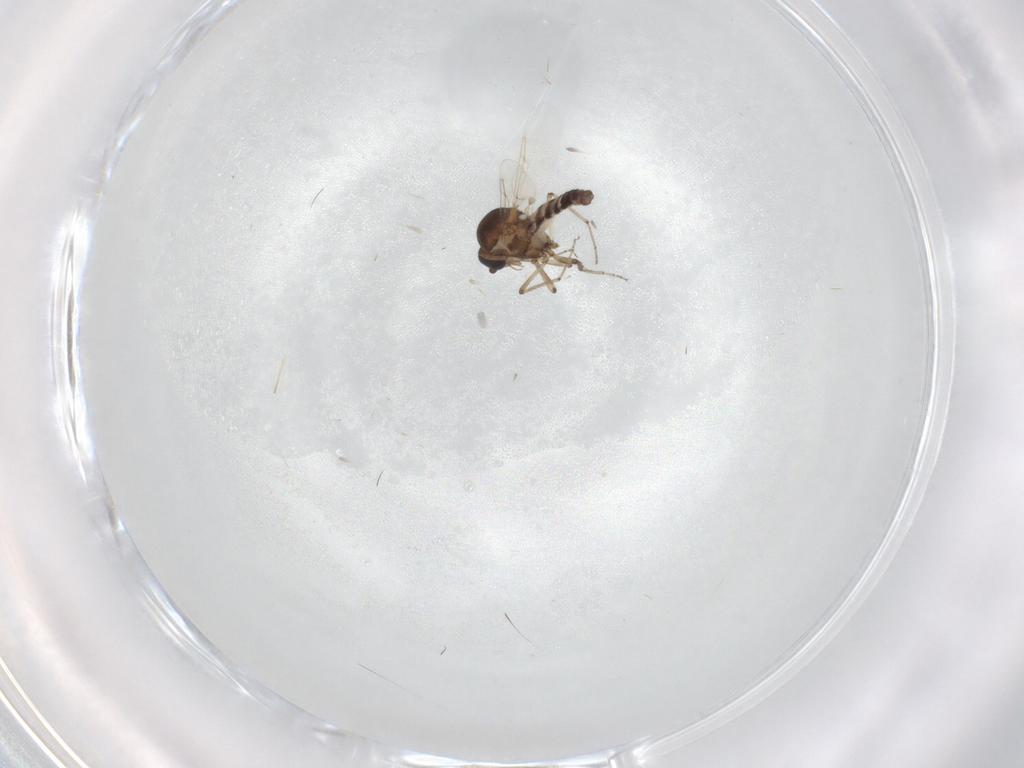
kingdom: Animalia
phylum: Arthropoda
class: Insecta
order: Diptera
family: Ceratopogonidae
